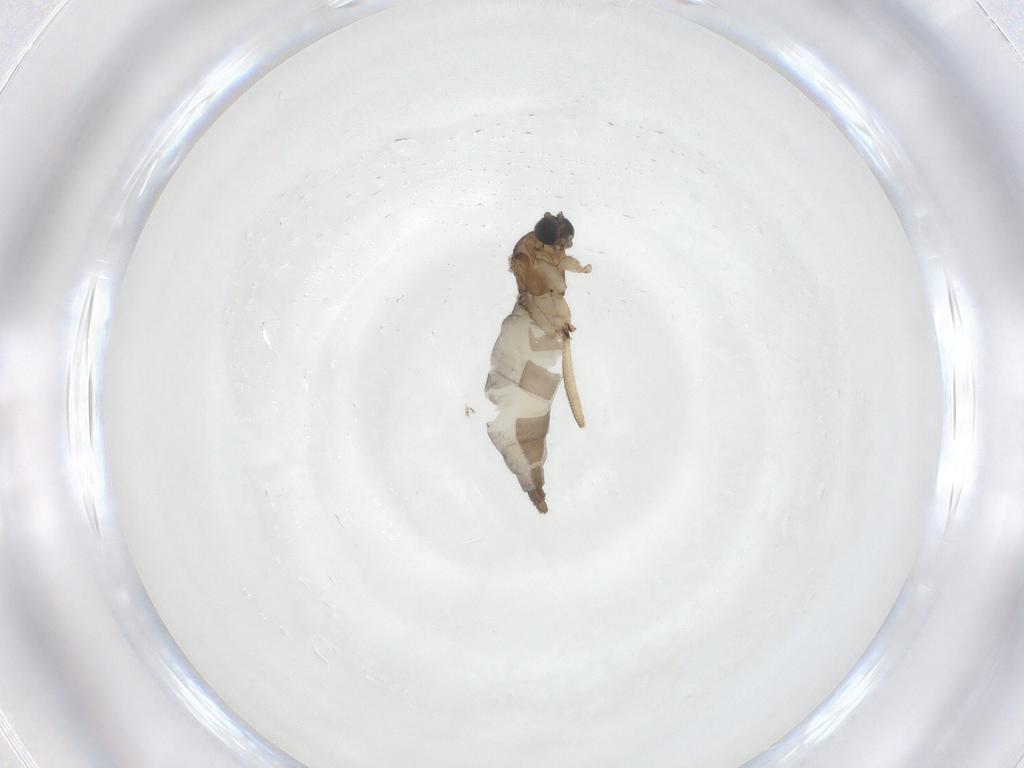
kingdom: Animalia
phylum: Arthropoda
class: Insecta
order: Diptera
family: Sciaridae
